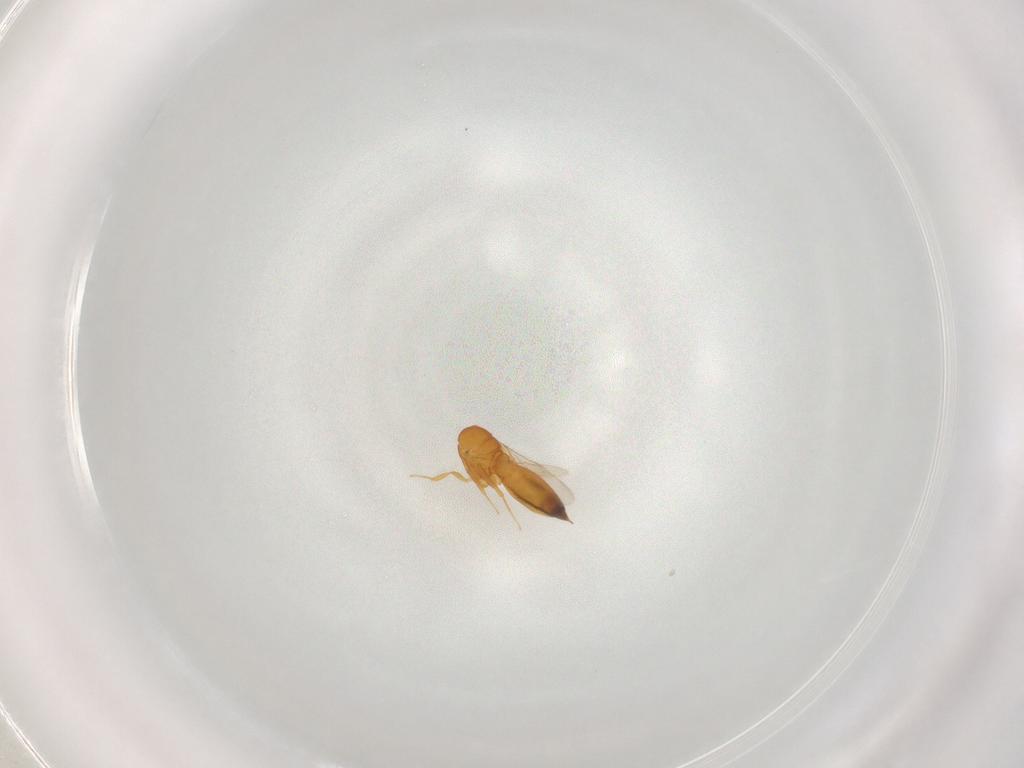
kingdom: Animalia
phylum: Arthropoda
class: Insecta
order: Hymenoptera
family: Scelionidae
